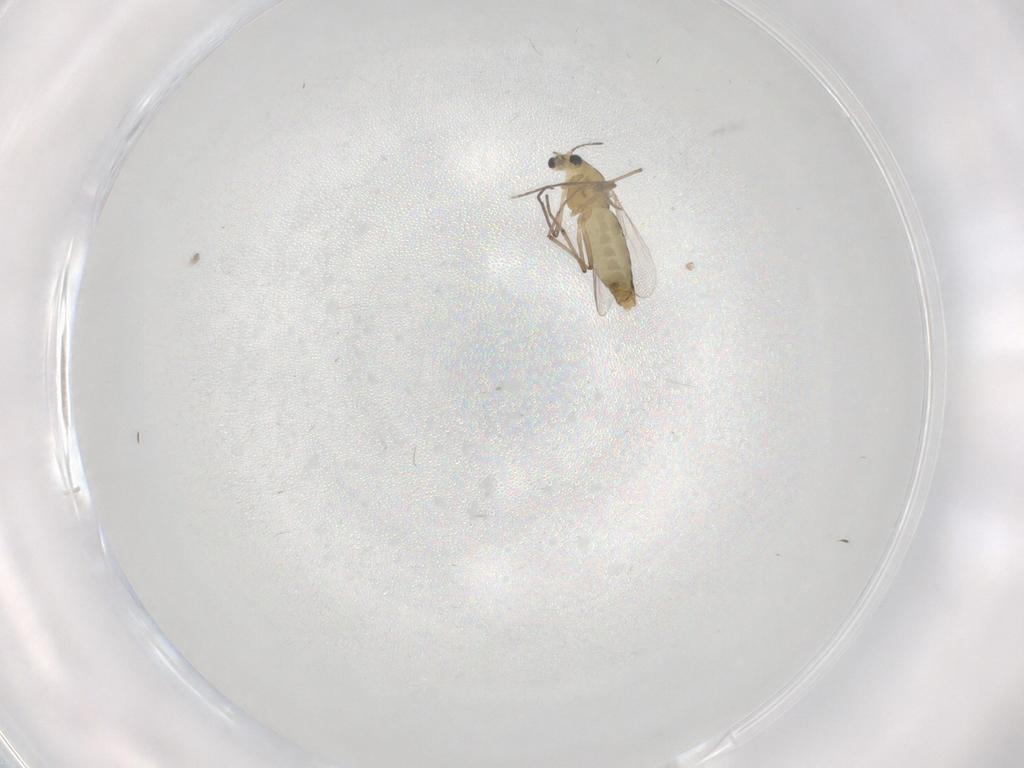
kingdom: Animalia
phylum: Arthropoda
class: Insecta
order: Diptera
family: Chironomidae
